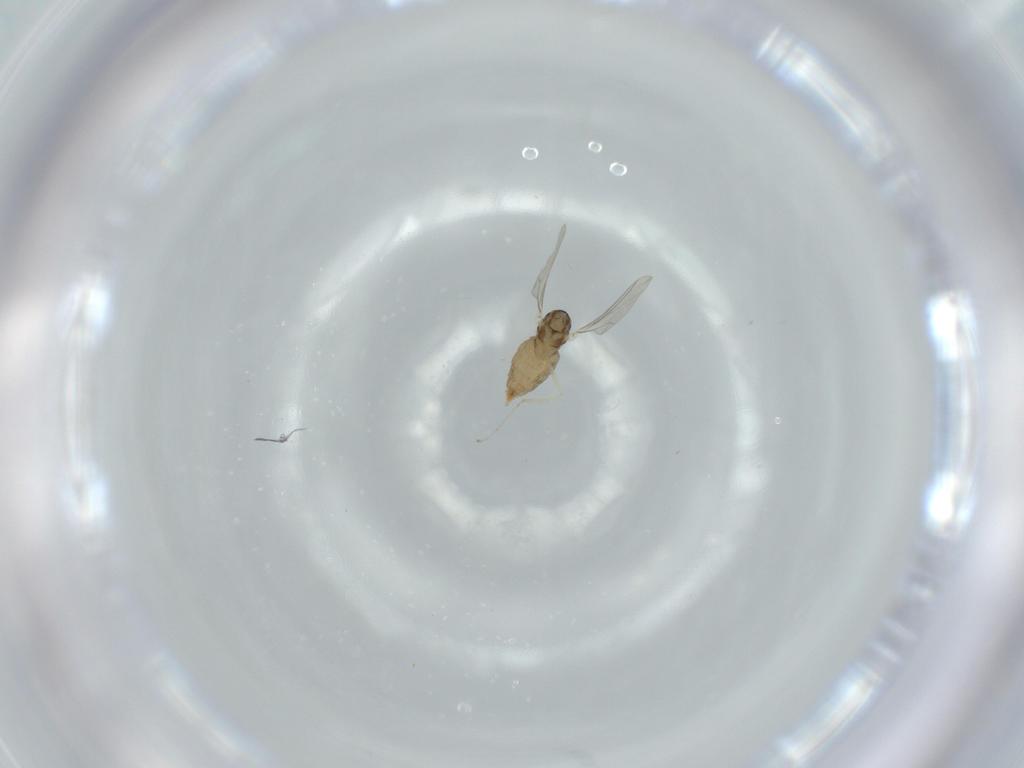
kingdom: Animalia
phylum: Arthropoda
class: Insecta
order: Diptera
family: Cecidomyiidae
